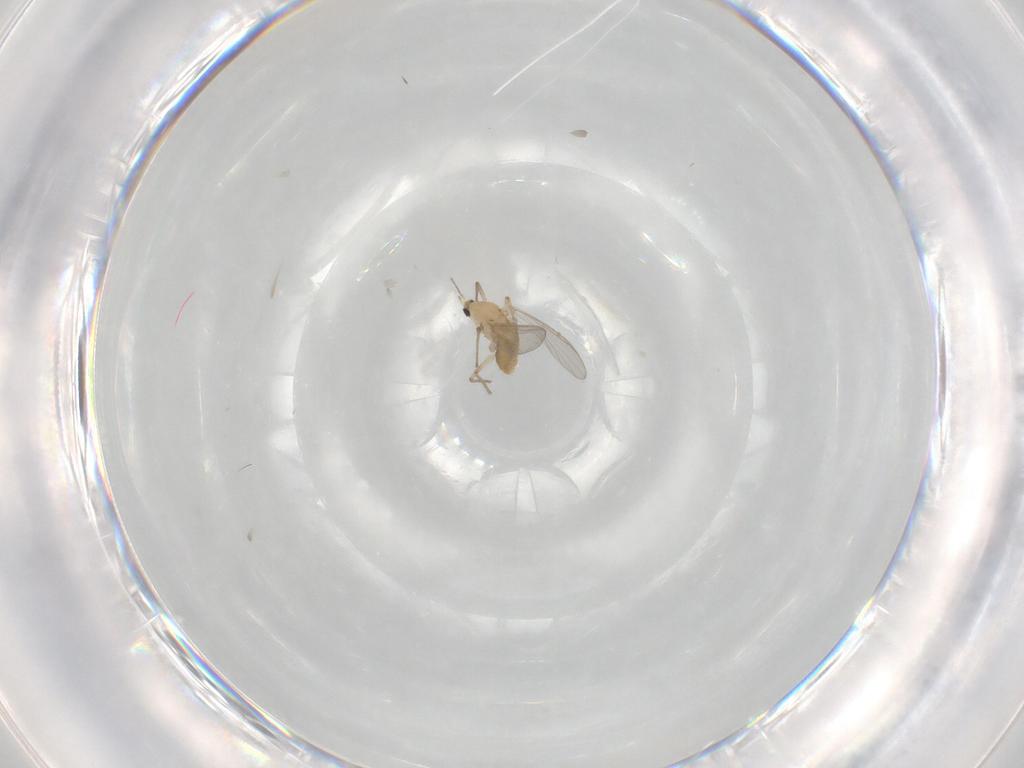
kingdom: Animalia
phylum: Arthropoda
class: Insecta
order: Diptera
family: Chironomidae
